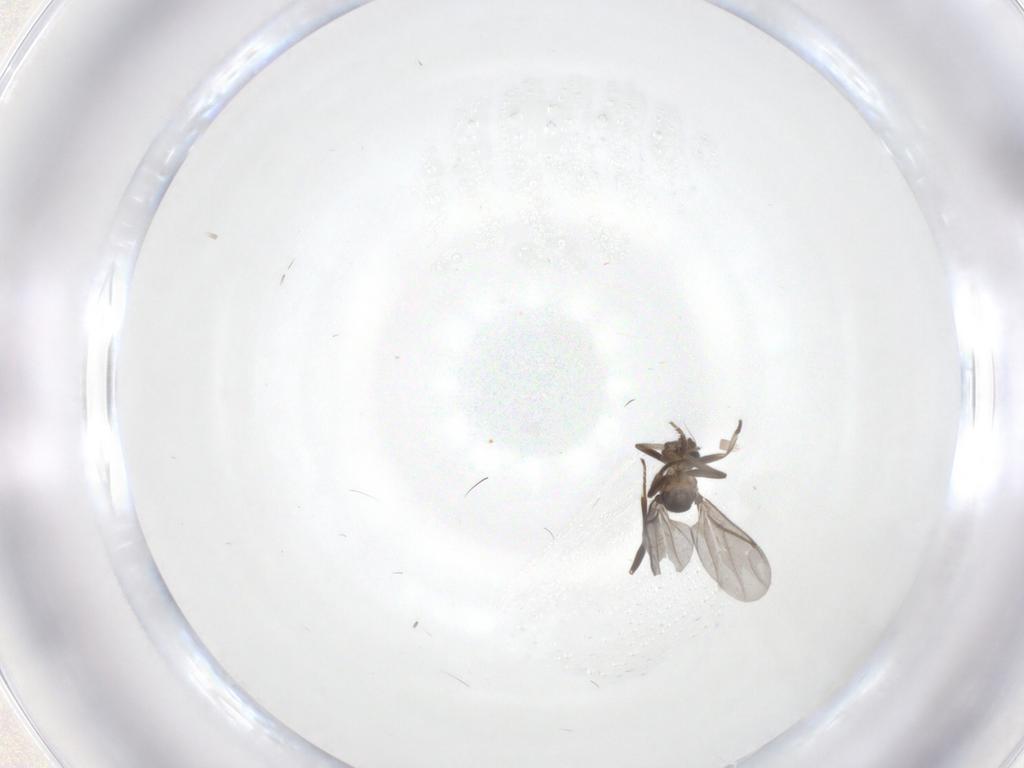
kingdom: Animalia
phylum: Arthropoda
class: Insecta
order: Diptera
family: Phoridae
